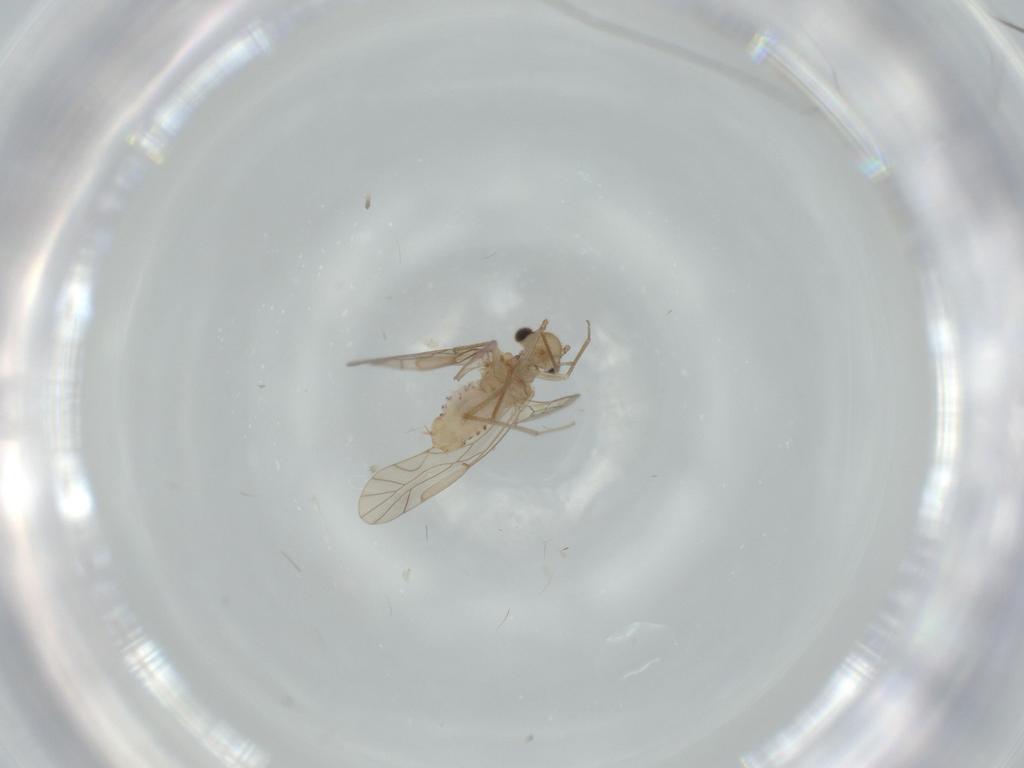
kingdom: Animalia
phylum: Arthropoda
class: Insecta
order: Psocodea
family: Lachesillidae
